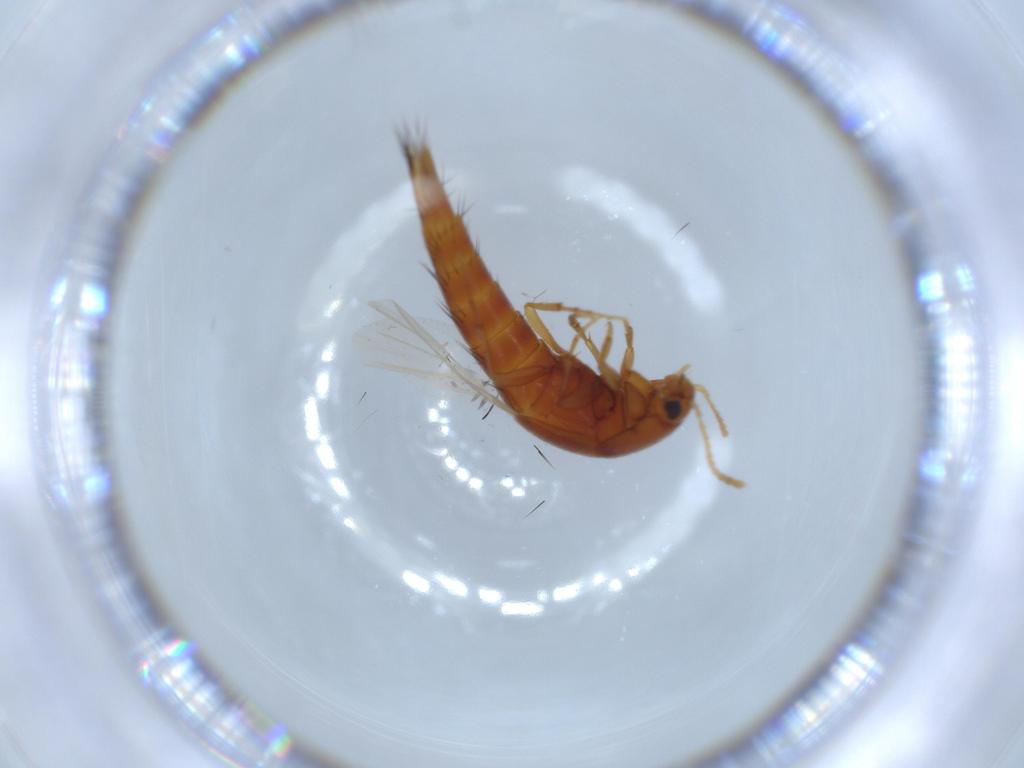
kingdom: Animalia
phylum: Arthropoda
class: Insecta
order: Coleoptera
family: Staphylinidae
